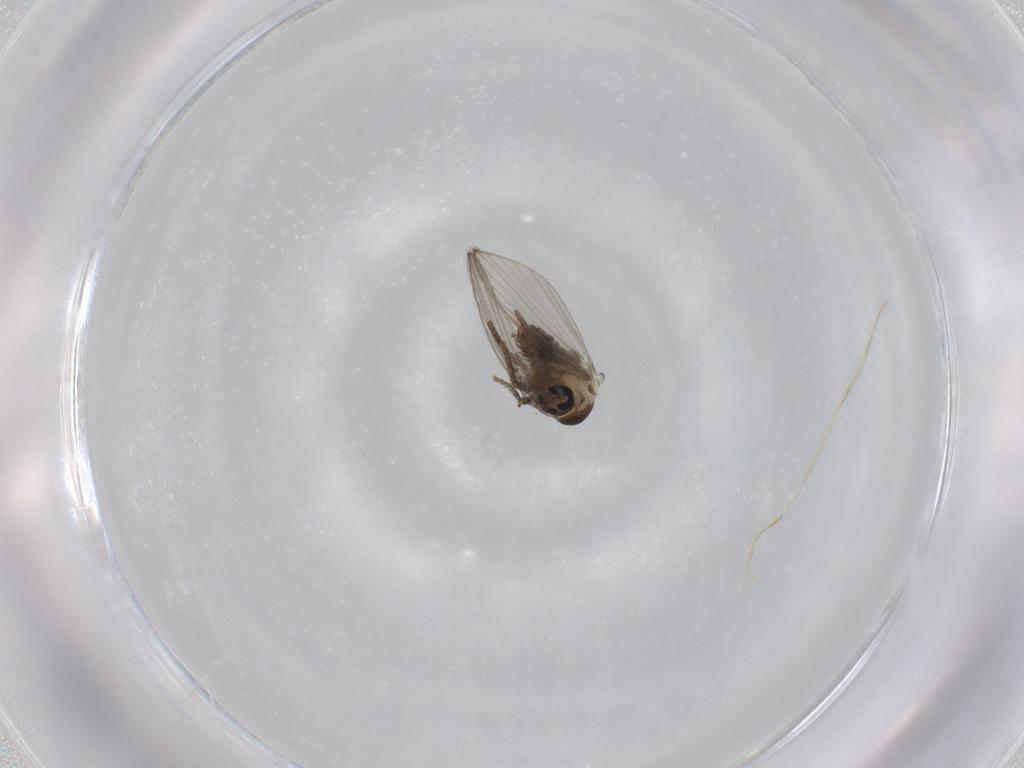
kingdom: Animalia
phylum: Arthropoda
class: Insecta
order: Diptera
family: Psychodidae
